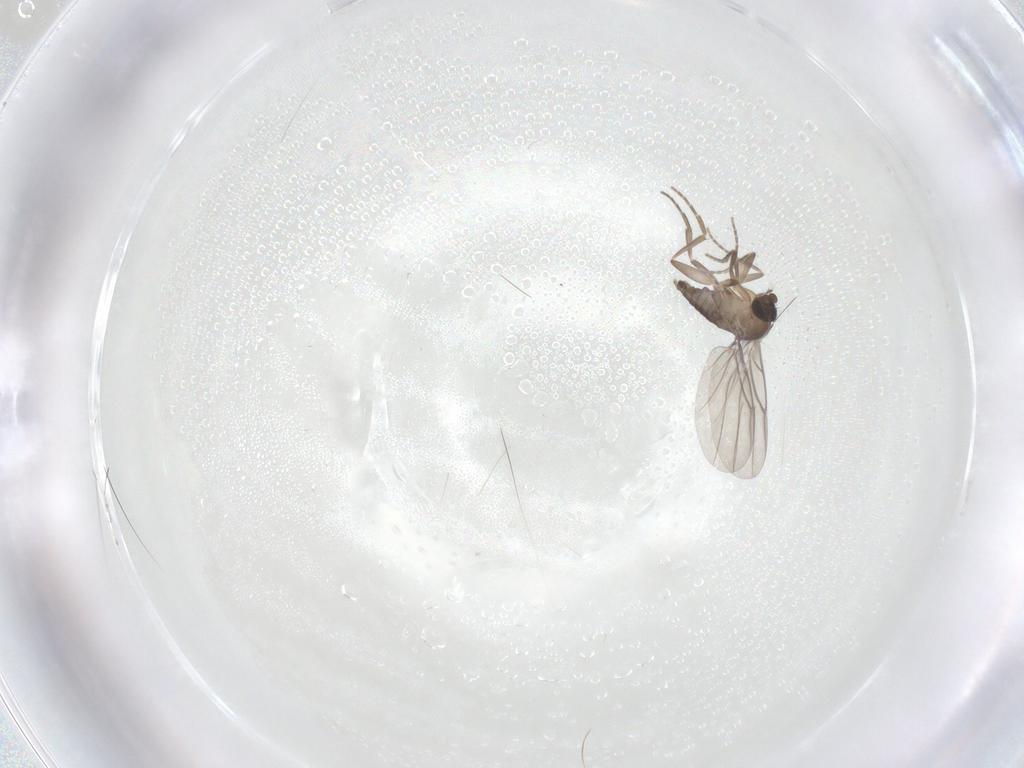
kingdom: Animalia
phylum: Arthropoda
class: Insecta
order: Diptera
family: Phoridae
